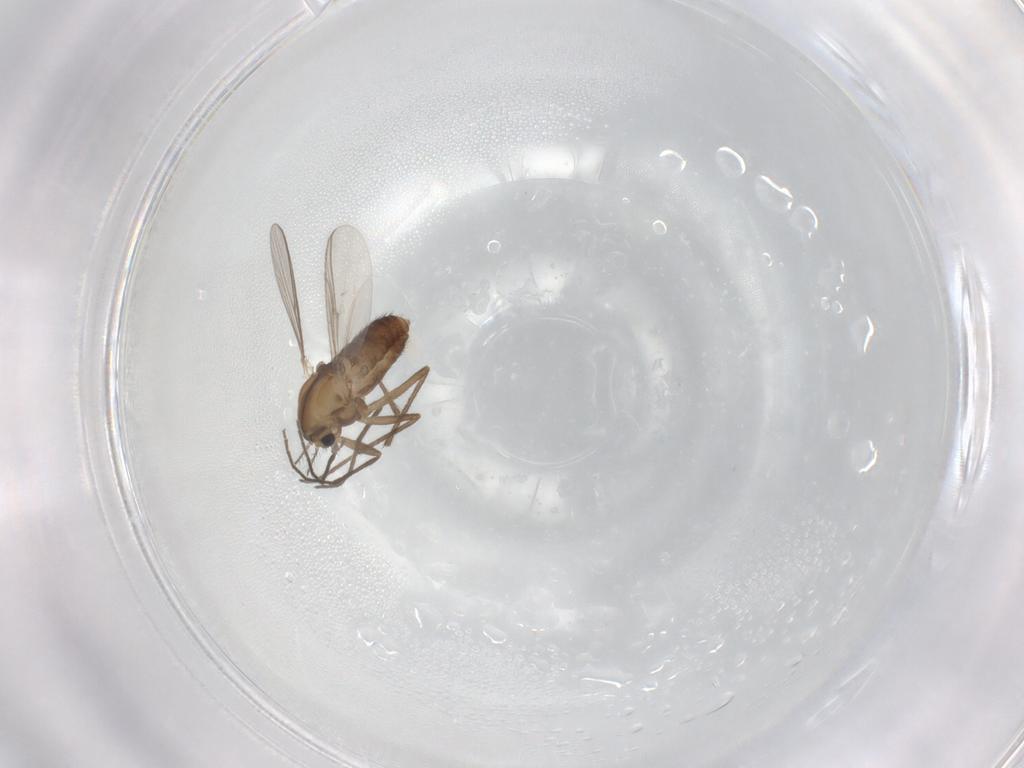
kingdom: Animalia
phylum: Arthropoda
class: Insecta
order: Diptera
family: Chironomidae
